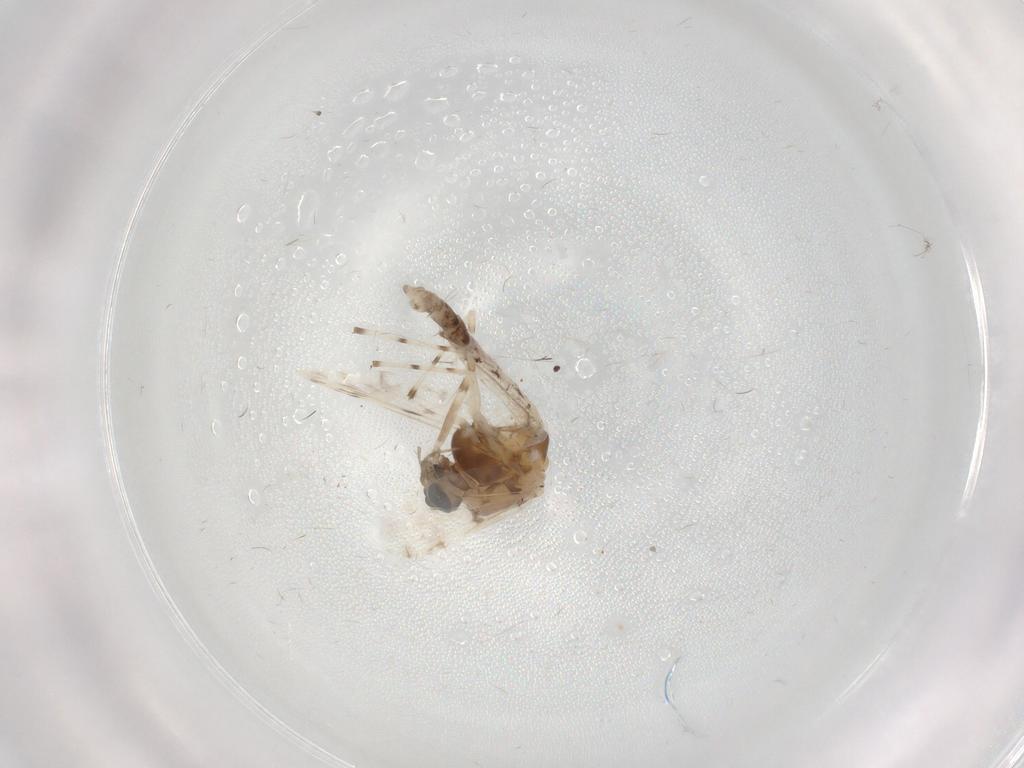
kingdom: Animalia
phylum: Arthropoda
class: Insecta
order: Diptera
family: Chironomidae
